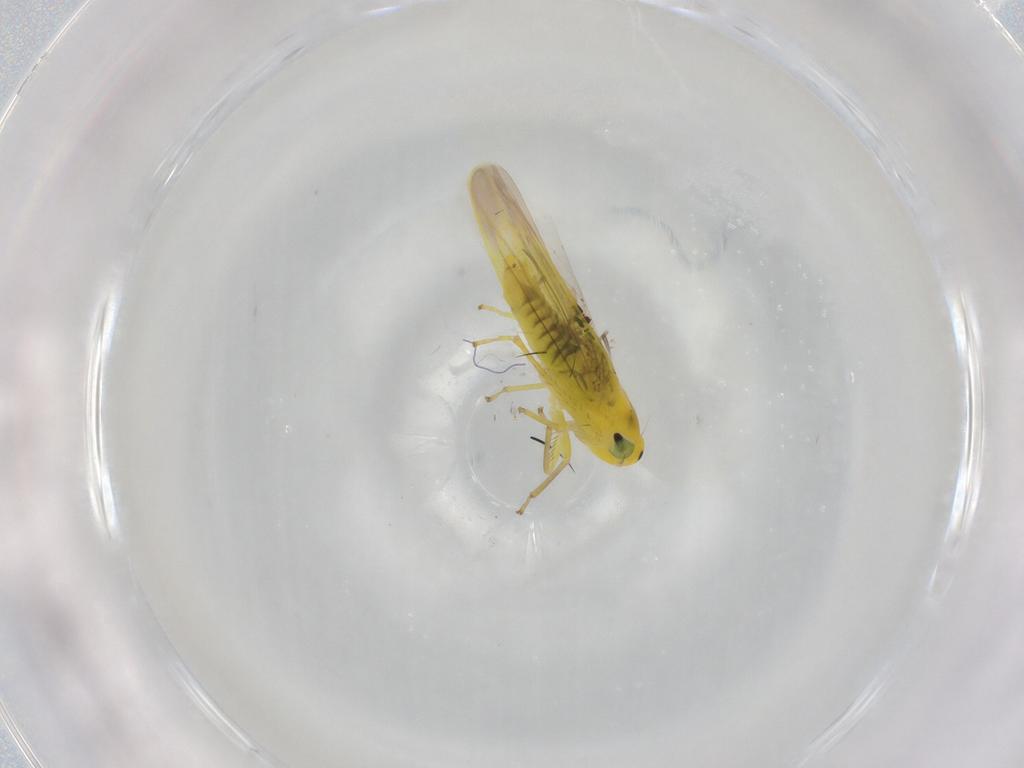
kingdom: Animalia
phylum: Arthropoda
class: Insecta
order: Hemiptera
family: Cicadellidae
